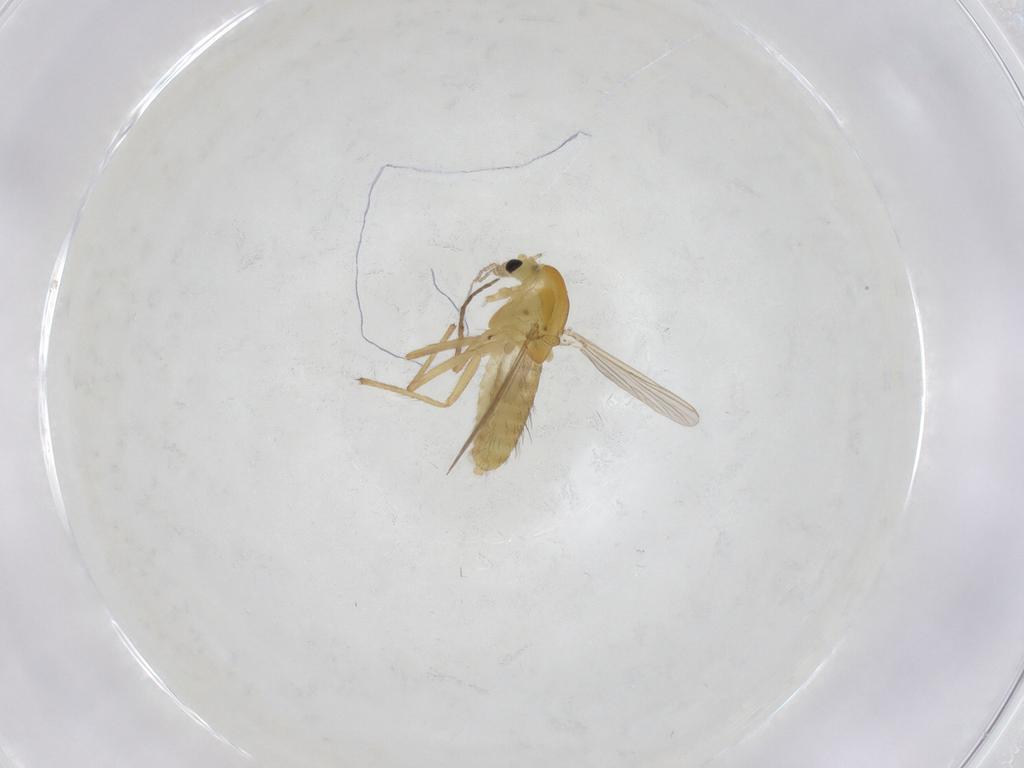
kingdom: Animalia
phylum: Arthropoda
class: Insecta
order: Diptera
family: Chironomidae
